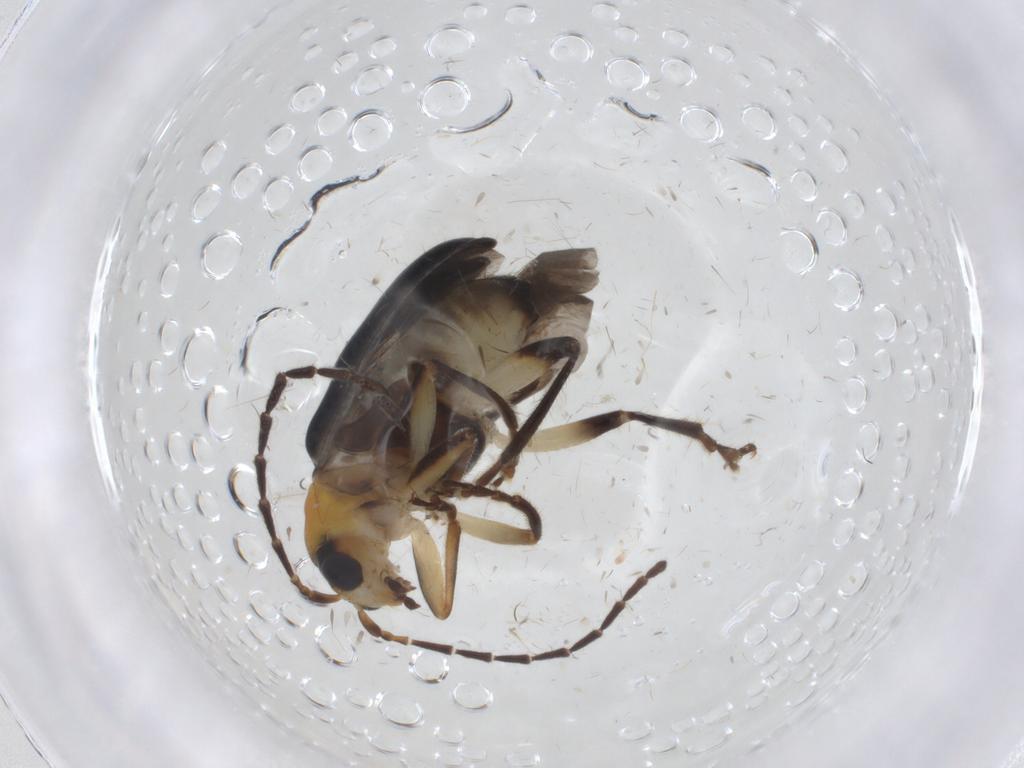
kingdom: Animalia
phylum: Arthropoda
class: Insecta
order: Coleoptera
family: Chrysomelidae
